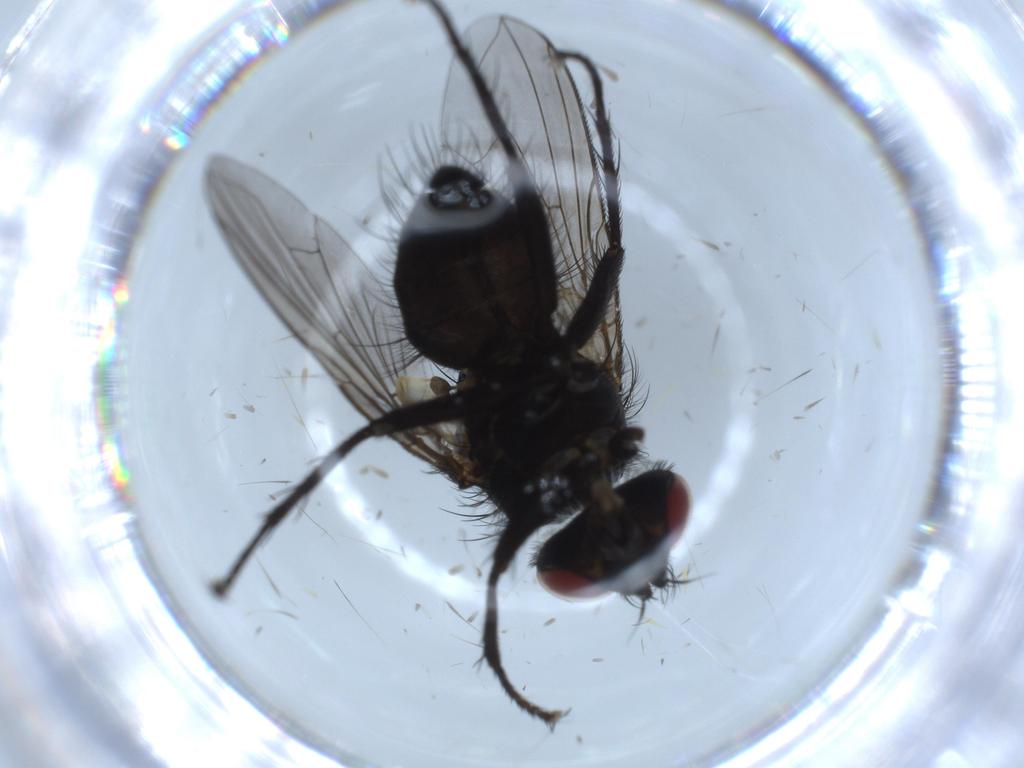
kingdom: Animalia
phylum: Arthropoda
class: Insecta
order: Diptera
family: Tachinidae
